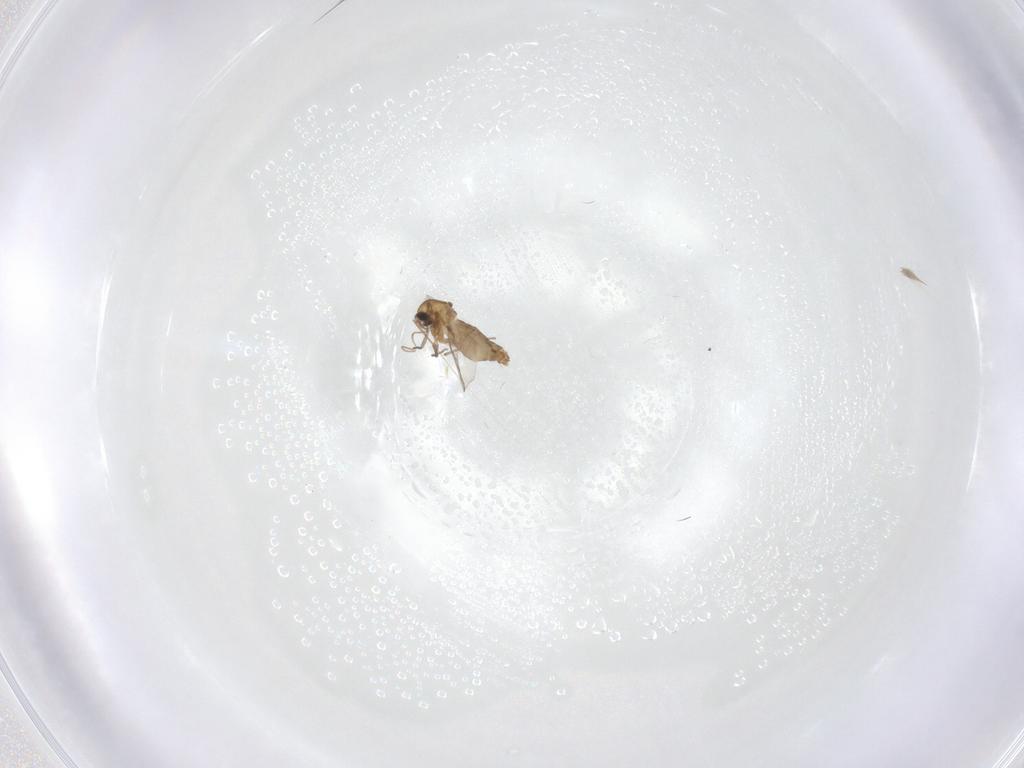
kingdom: Animalia
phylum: Arthropoda
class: Insecta
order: Diptera
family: Chironomidae
